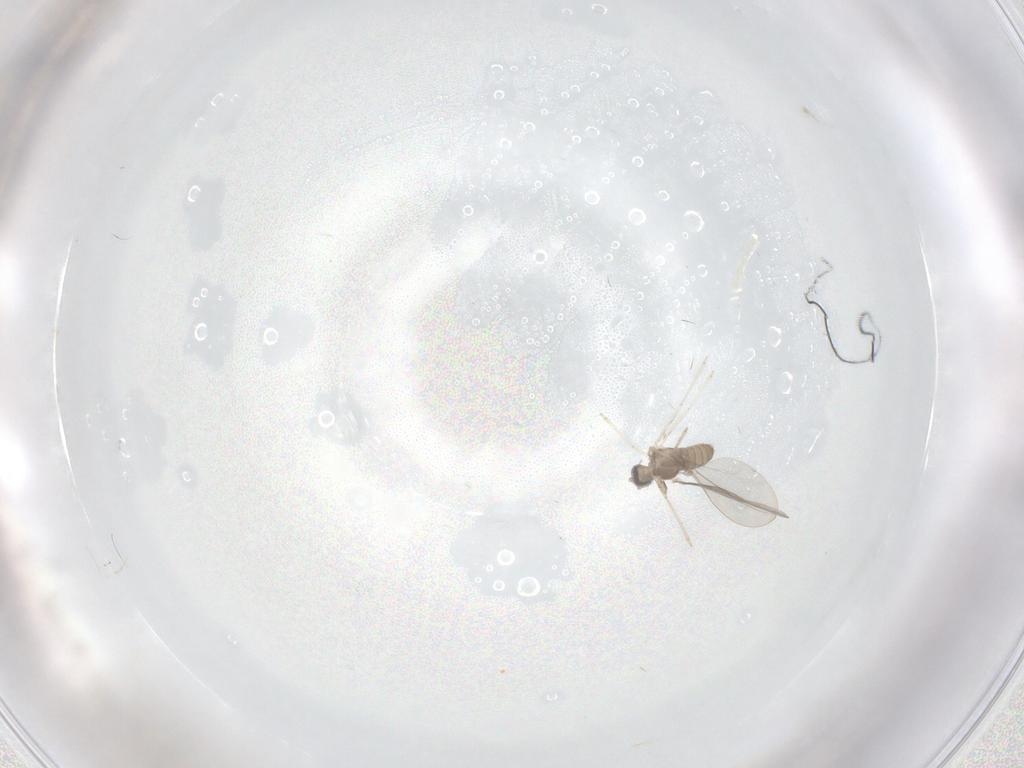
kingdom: Animalia
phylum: Arthropoda
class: Insecta
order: Diptera
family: Cecidomyiidae
